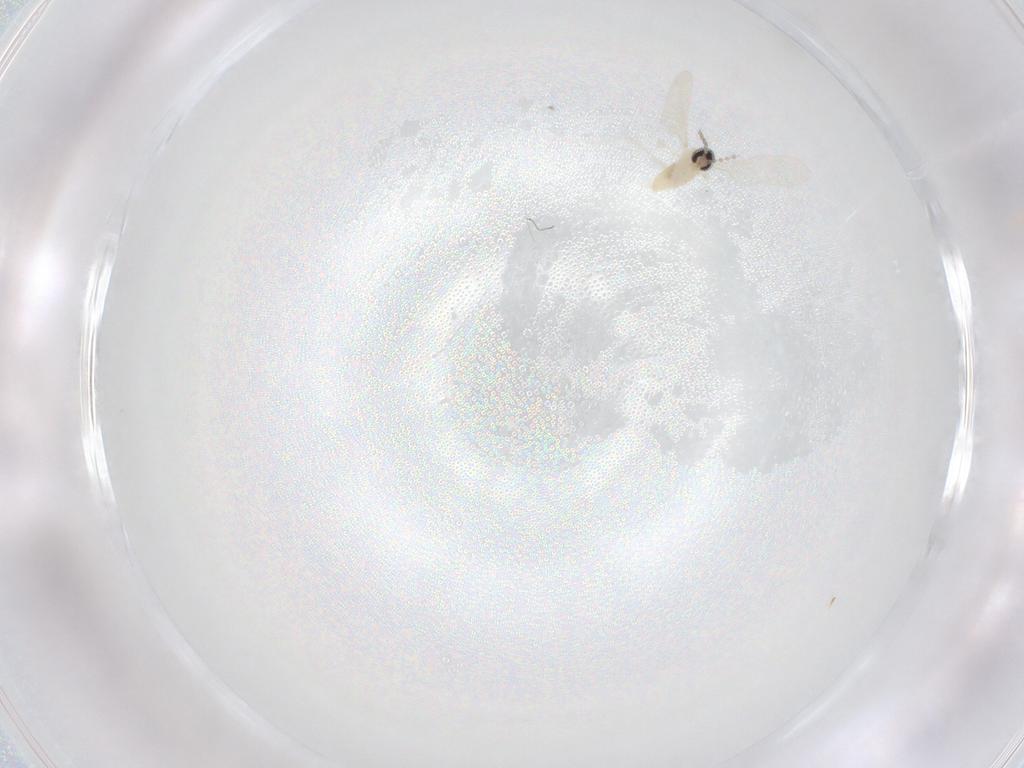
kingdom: Animalia
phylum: Arthropoda
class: Insecta
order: Diptera
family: Cecidomyiidae
